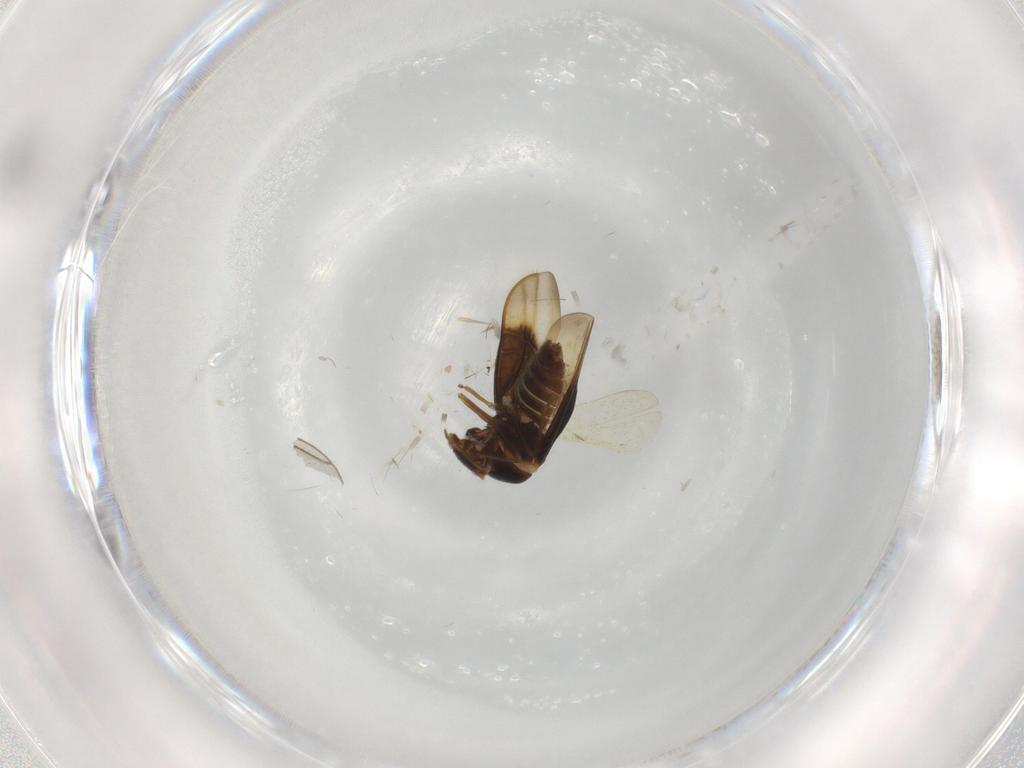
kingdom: Animalia
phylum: Arthropoda
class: Insecta
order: Hemiptera
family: Schizopteridae
